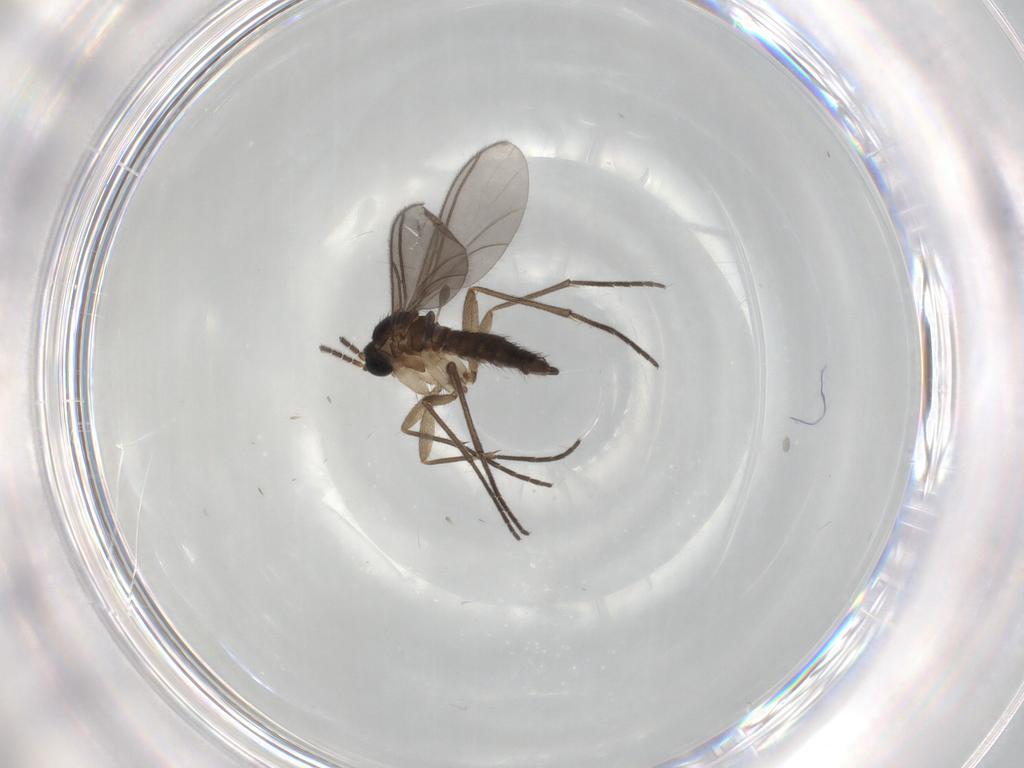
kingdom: Animalia
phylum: Arthropoda
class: Insecta
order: Diptera
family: Sciaridae
